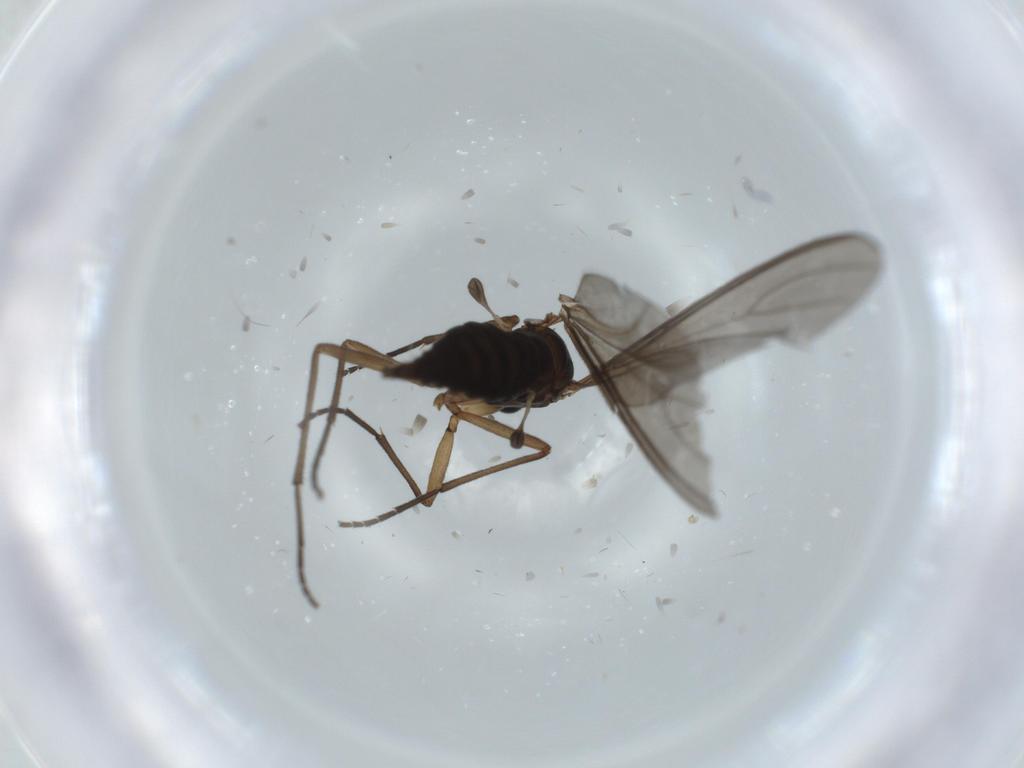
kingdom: Animalia
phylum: Arthropoda
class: Insecta
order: Diptera
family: Sciaridae
